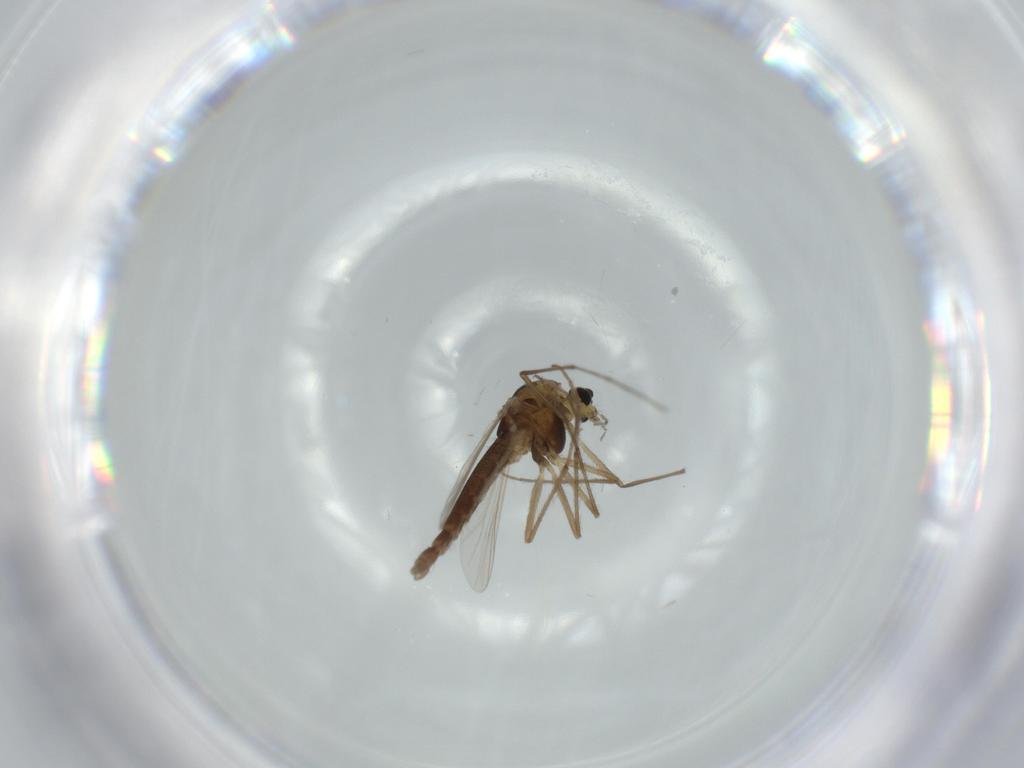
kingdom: Animalia
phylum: Arthropoda
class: Insecta
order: Diptera
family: Chironomidae
